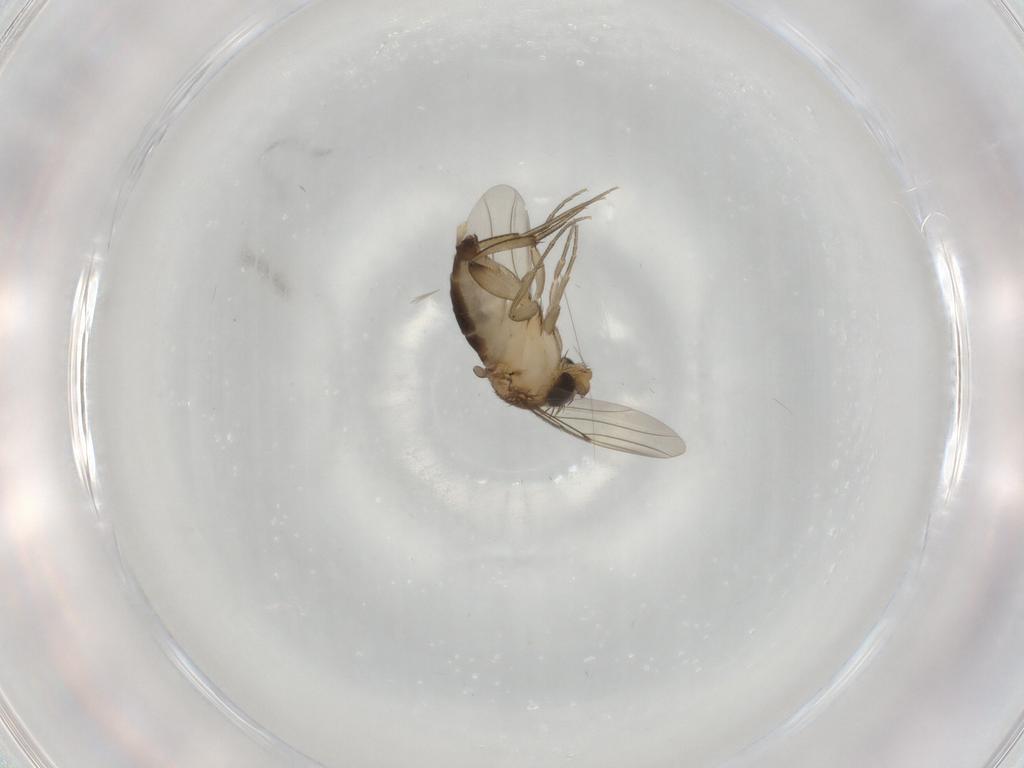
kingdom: Animalia
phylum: Arthropoda
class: Insecta
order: Diptera
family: Phoridae
